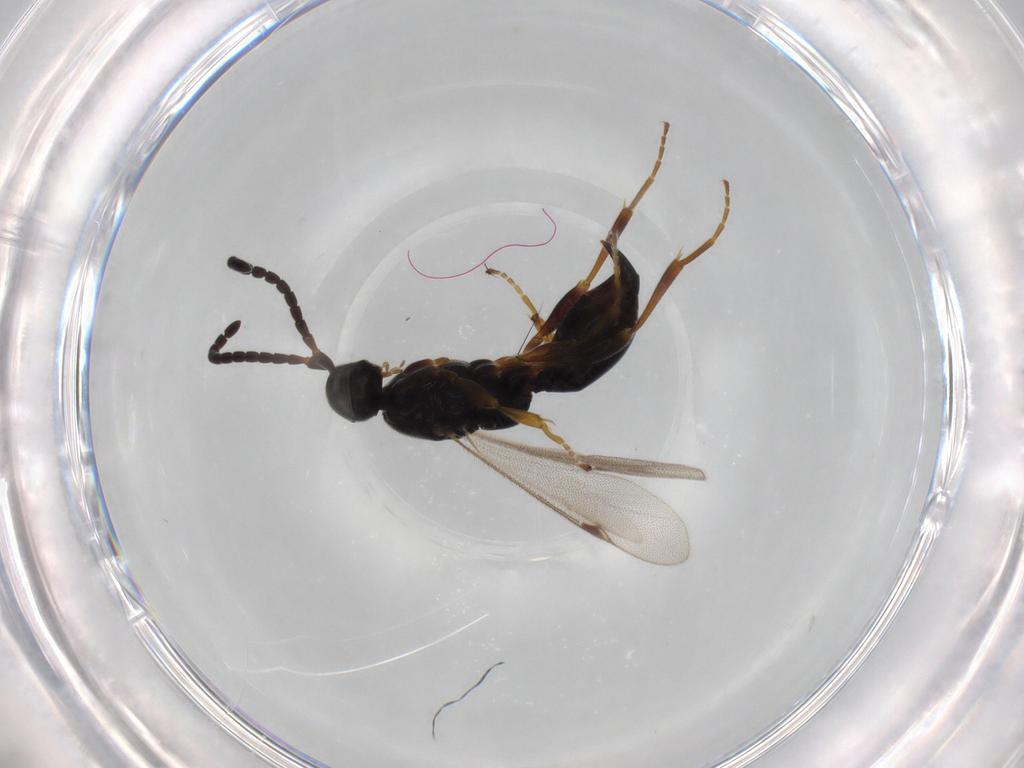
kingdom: Animalia
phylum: Arthropoda
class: Insecta
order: Hymenoptera
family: Proctotrupidae
